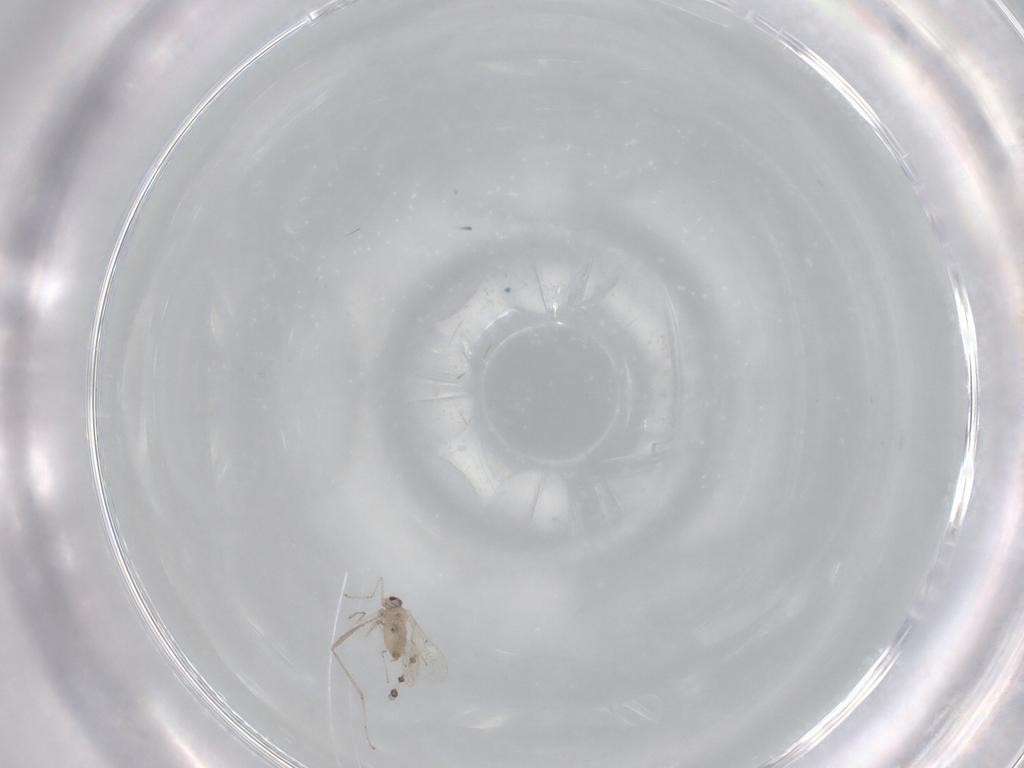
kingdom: Animalia
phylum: Arthropoda
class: Insecta
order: Diptera
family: Cecidomyiidae
